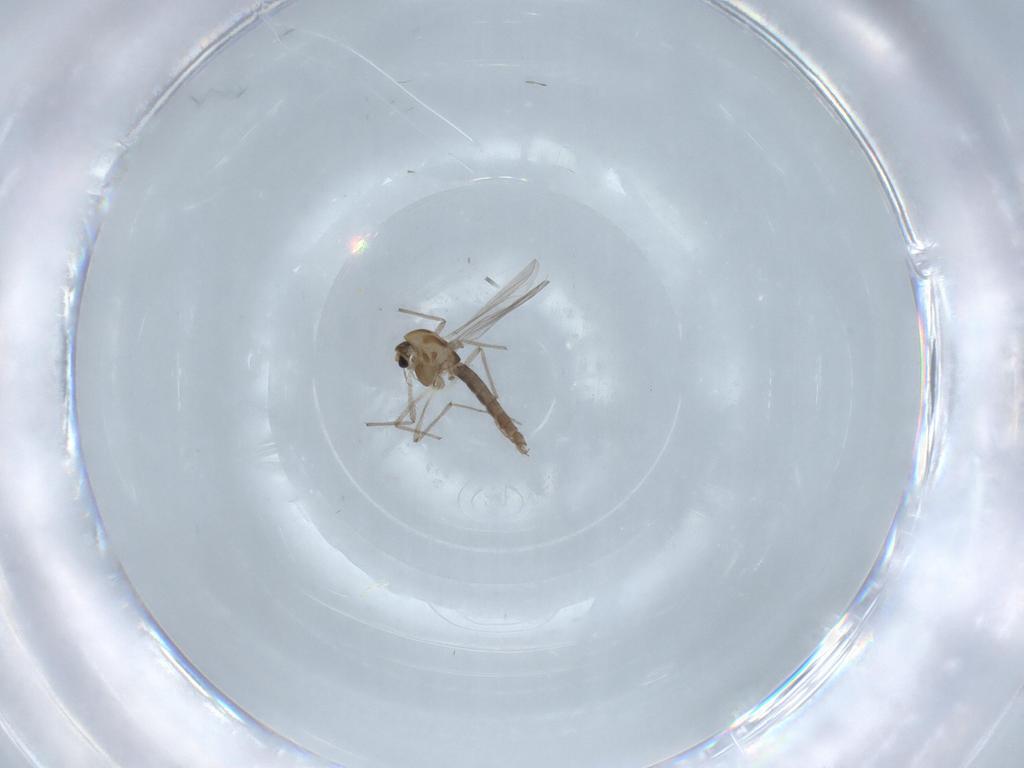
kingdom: Animalia
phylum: Arthropoda
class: Insecta
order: Diptera
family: Chironomidae
